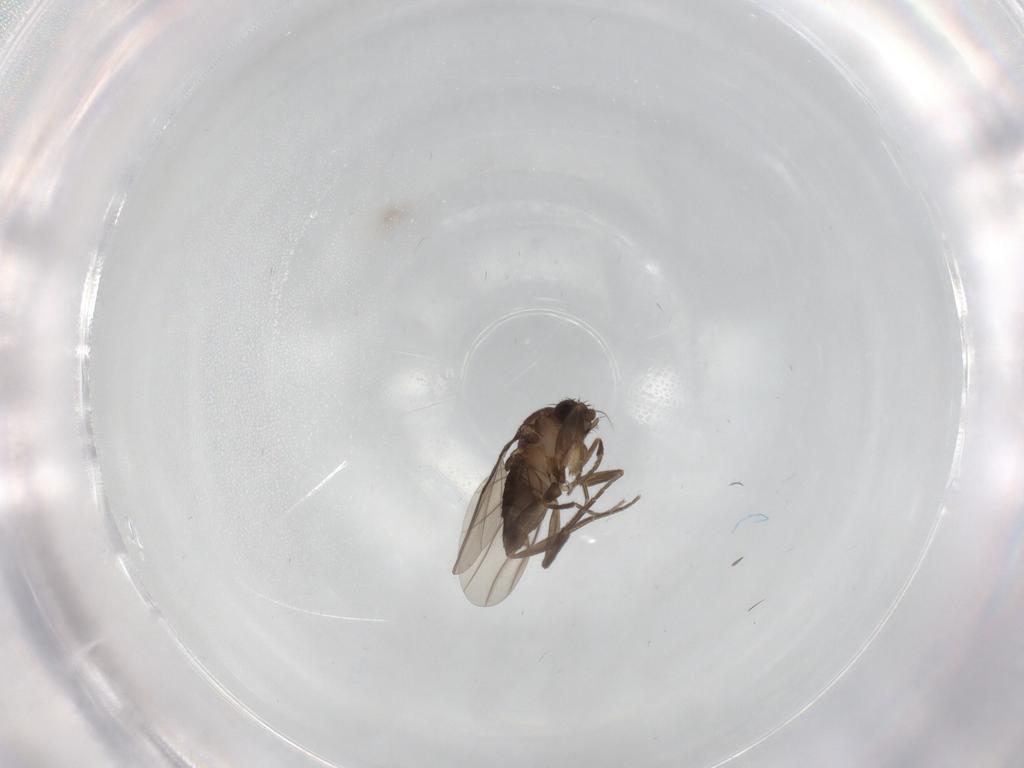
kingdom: Animalia
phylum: Arthropoda
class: Insecta
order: Diptera
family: Phoridae
